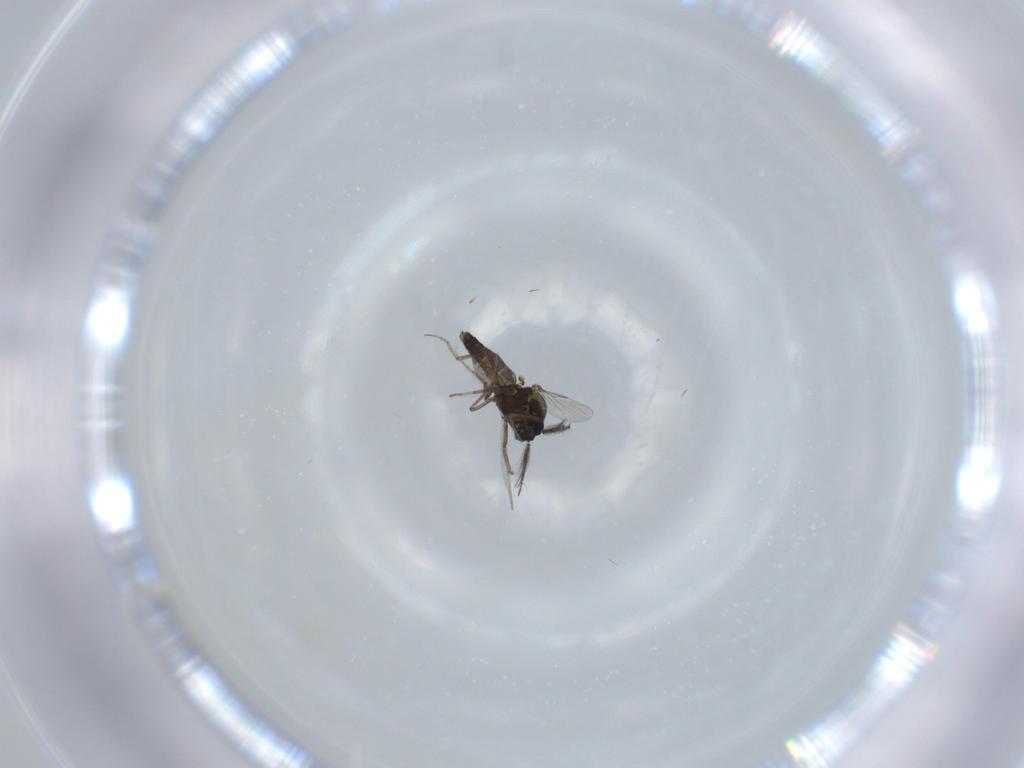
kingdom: Animalia
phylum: Arthropoda
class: Insecta
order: Diptera
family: Ceratopogonidae
